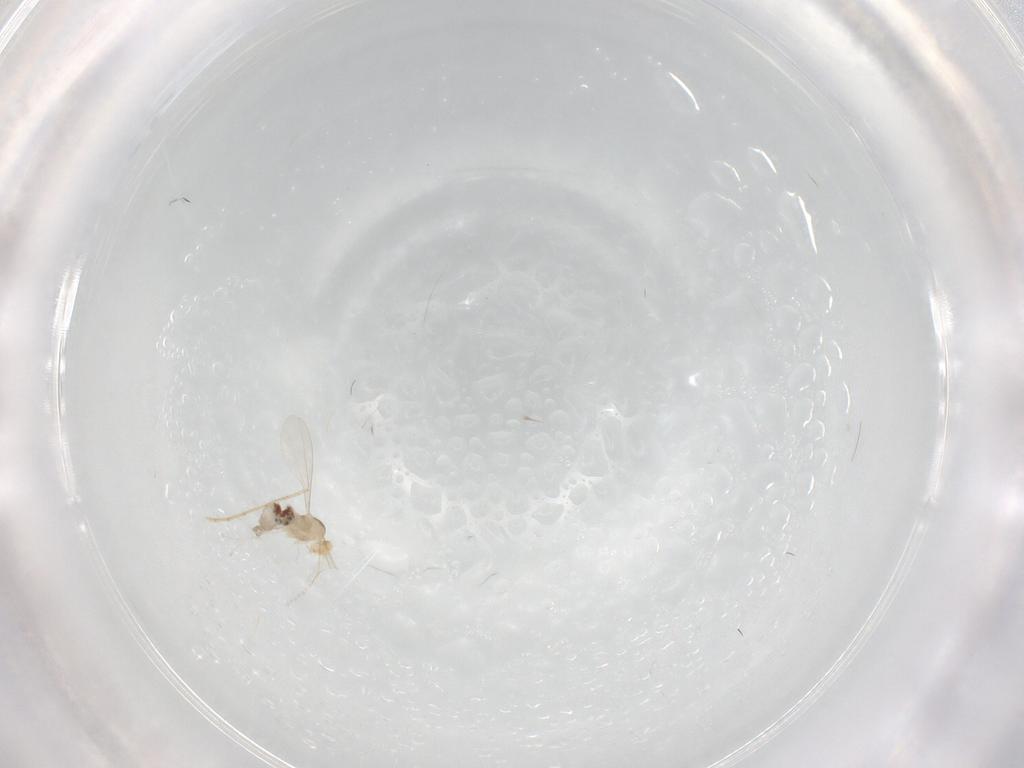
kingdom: Animalia
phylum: Arthropoda
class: Insecta
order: Diptera
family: Cecidomyiidae
